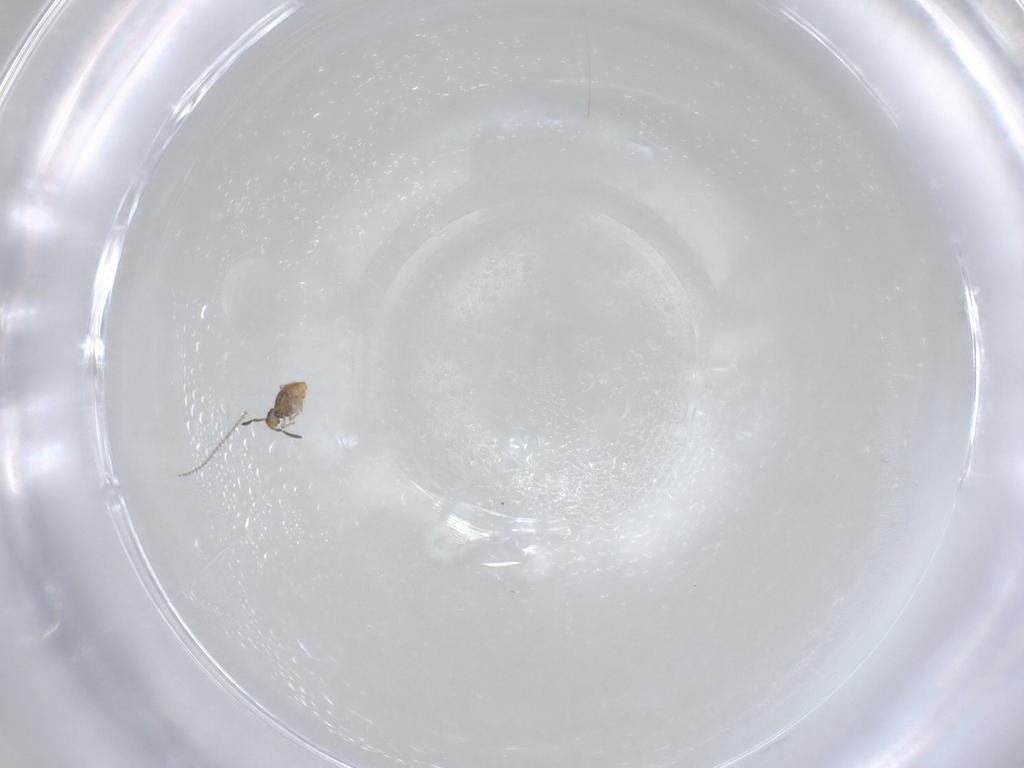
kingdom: Animalia
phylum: Arthropoda
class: Collembola
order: Symphypleona
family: Katiannidae
